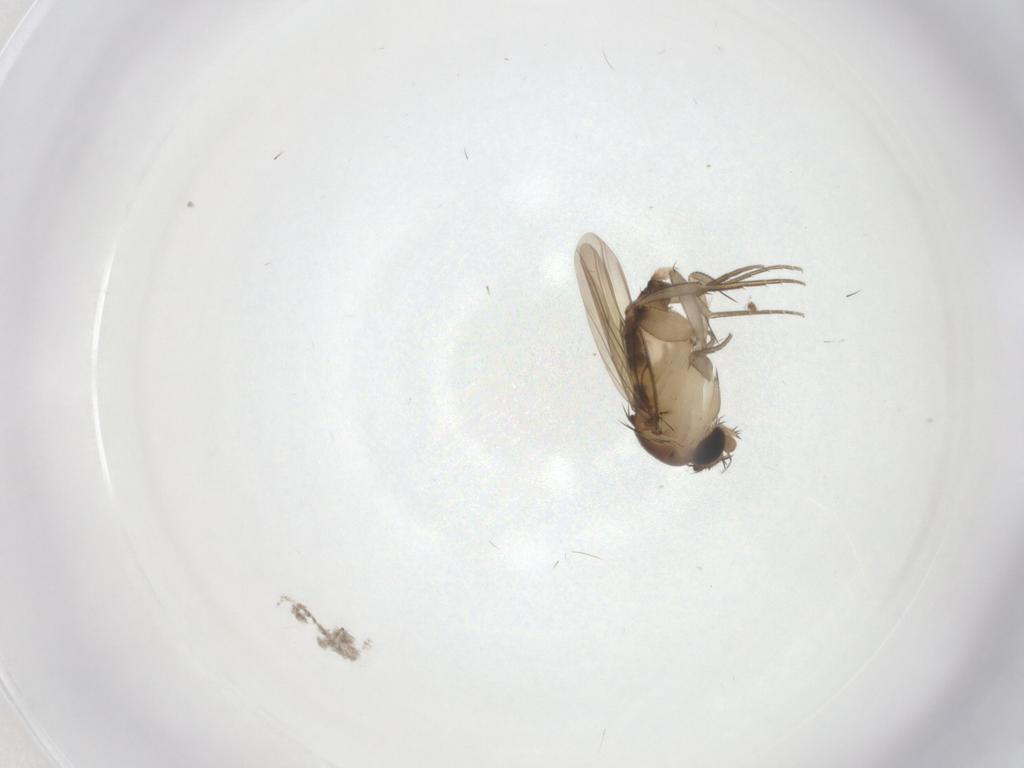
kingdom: Animalia
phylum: Arthropoda
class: Insecta
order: Diptera
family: Phoridae
